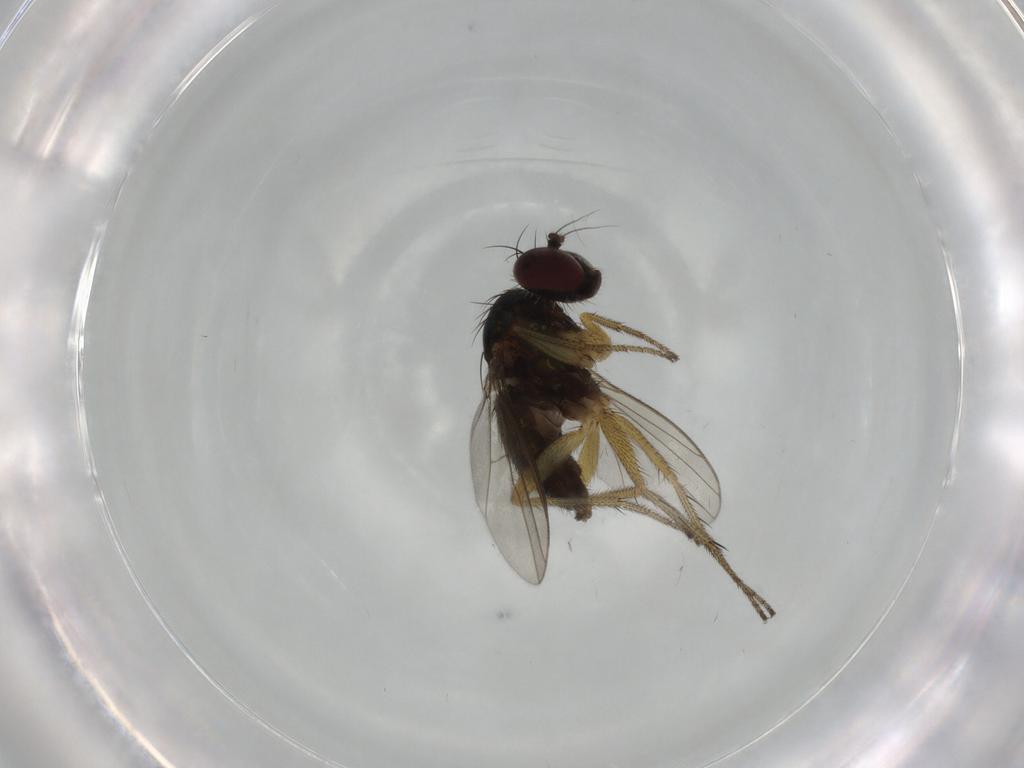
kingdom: Animalia
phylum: Arthropoda
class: Insecta
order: Diptera
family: Dolichopodidae
